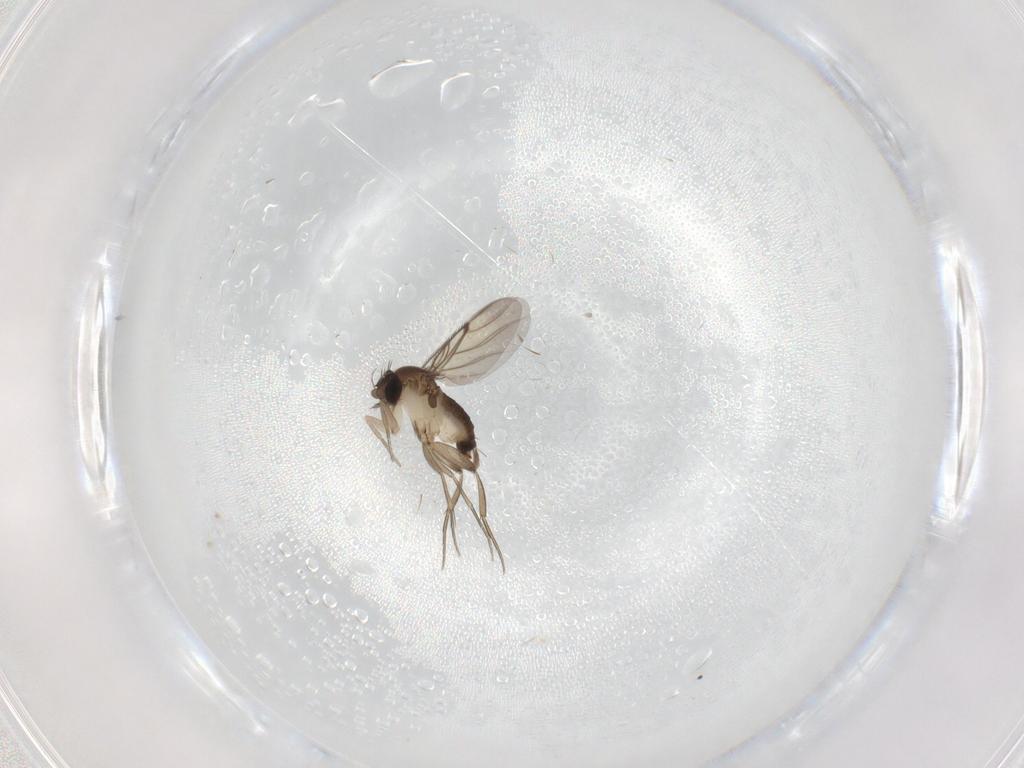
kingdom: Animalia
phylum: Arthropoda
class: Insecta
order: Diptera
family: Phoridae
